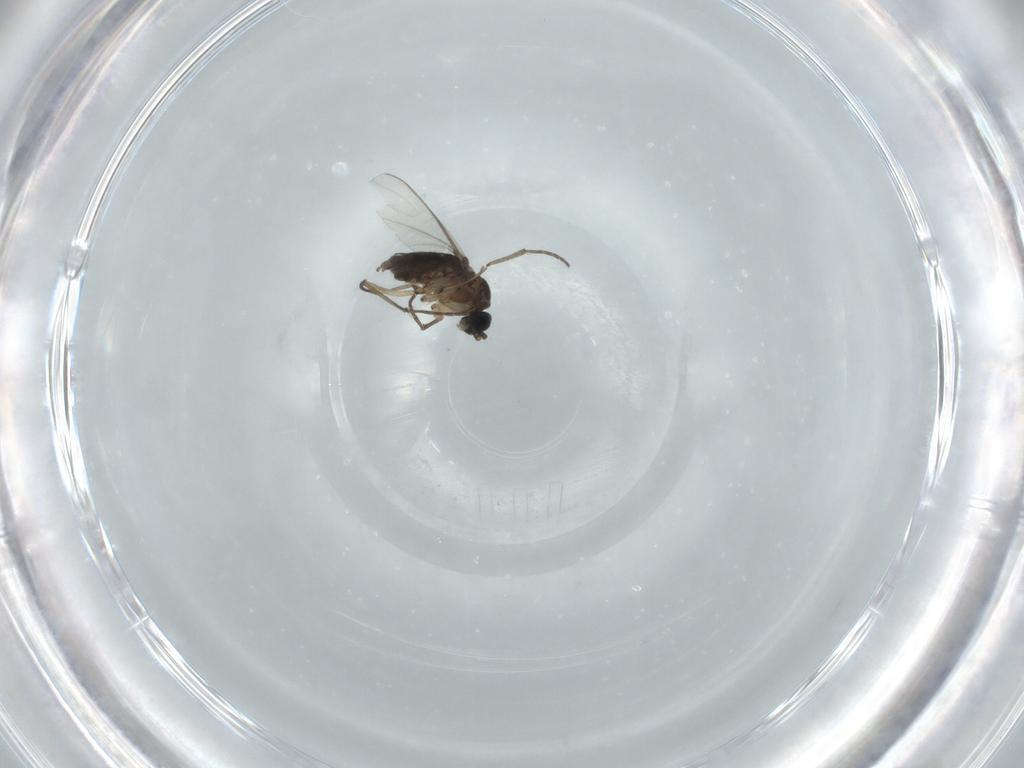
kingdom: Animalia
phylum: Arthropoda
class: Insecta
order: Diptera
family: Sciaridae
